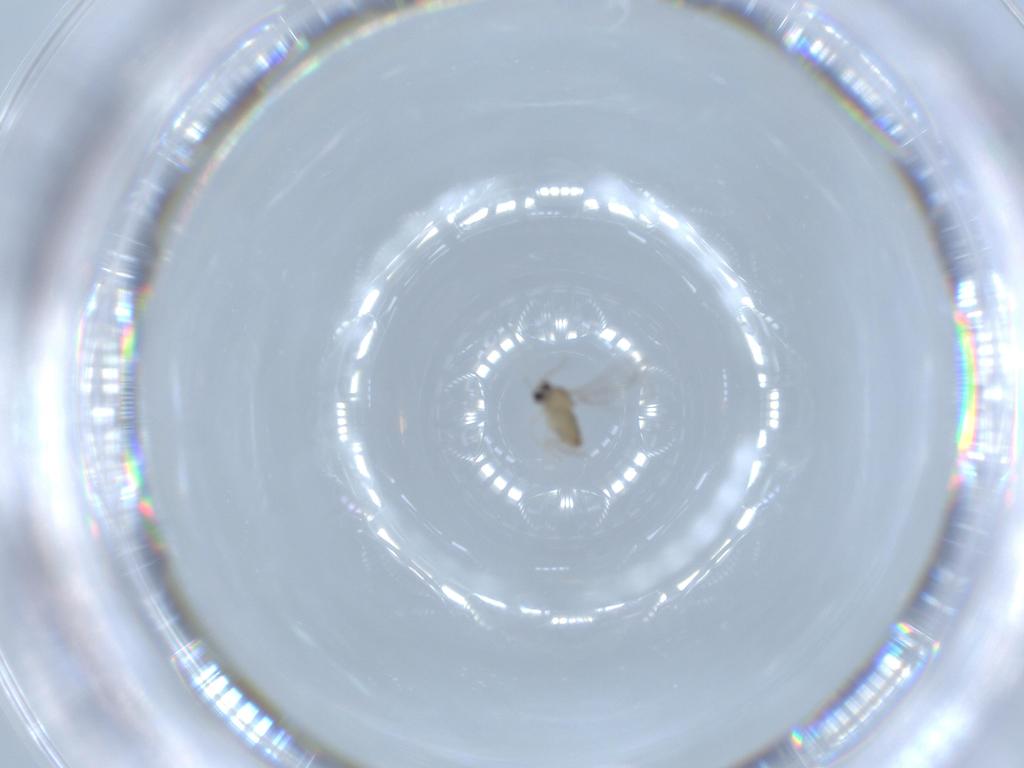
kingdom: Animalia
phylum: Arthropoda
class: Insecta
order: Diptera
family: Cecidomyiidae
